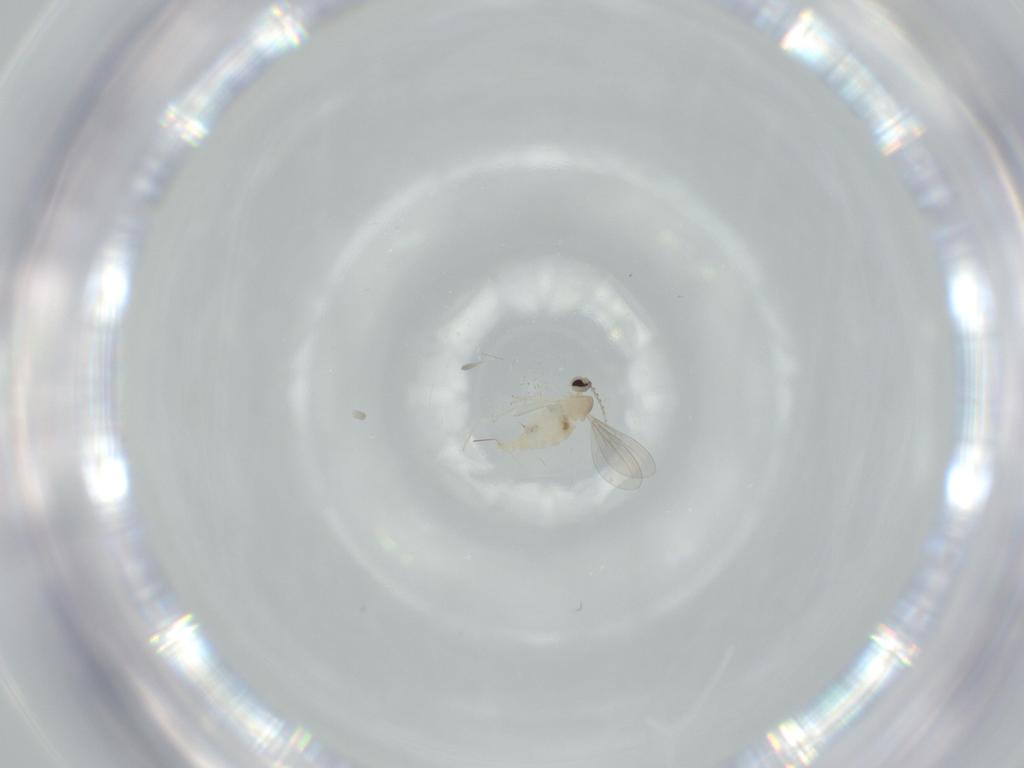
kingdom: Animalia
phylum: Arthropoda
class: Insecta
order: Diptera
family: Cecidomyiidae
